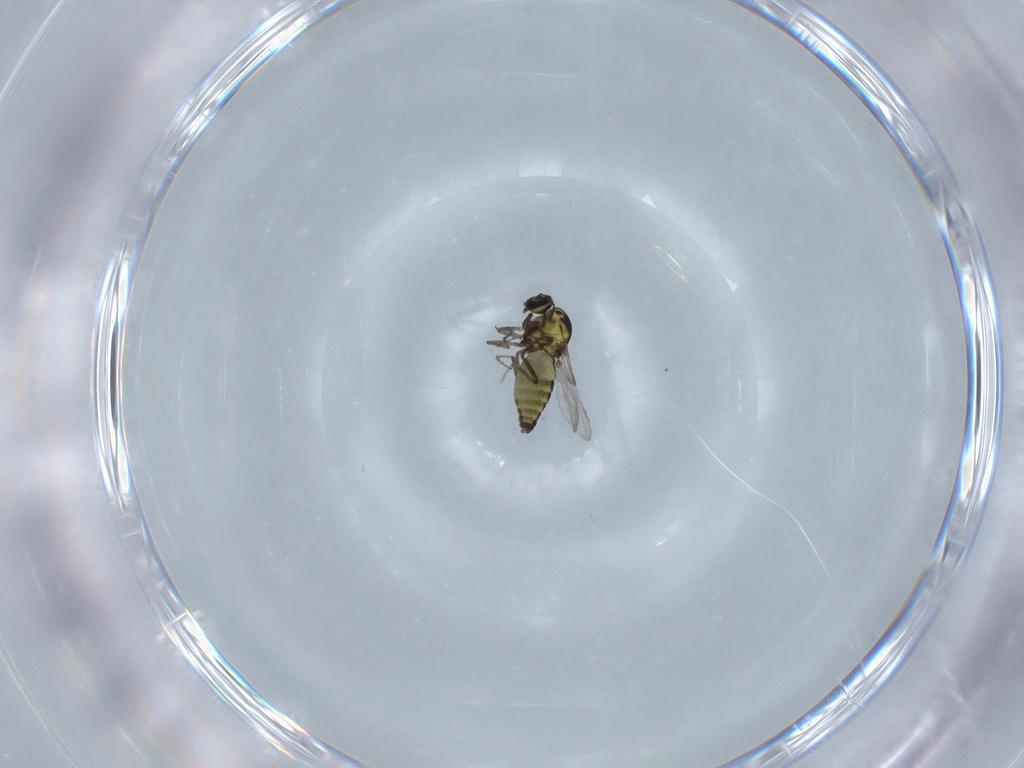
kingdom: Animalia
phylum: Arthropoda
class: Insecta
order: Diptera
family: Ceratopogonidae
